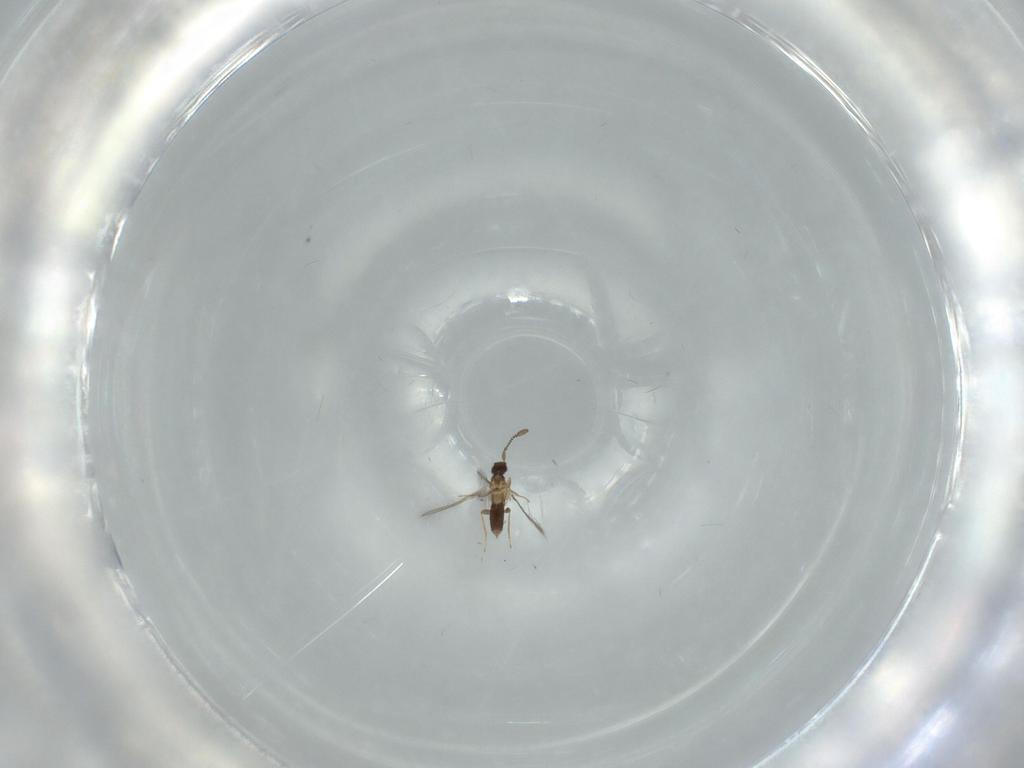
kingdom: Animalia
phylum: Arthropoda
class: Insecta
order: Hymenoptera
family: Mymaridae
